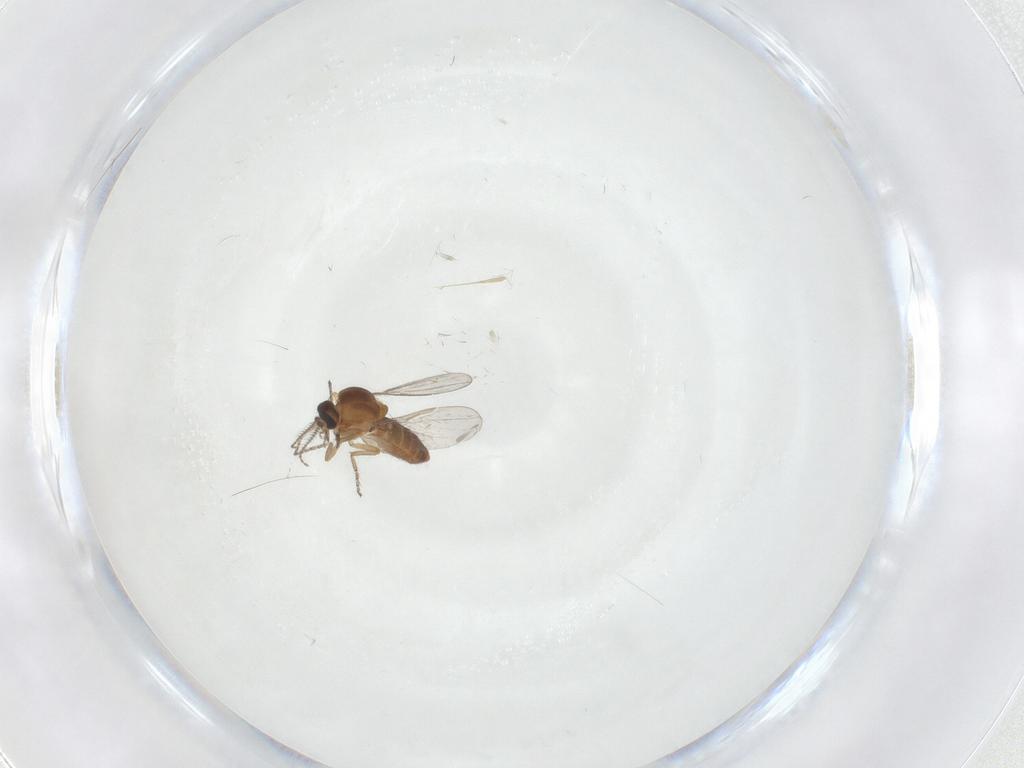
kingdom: Animalia
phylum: Arthropoda
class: Insecta
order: Diptera
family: Ceratopogonidae
